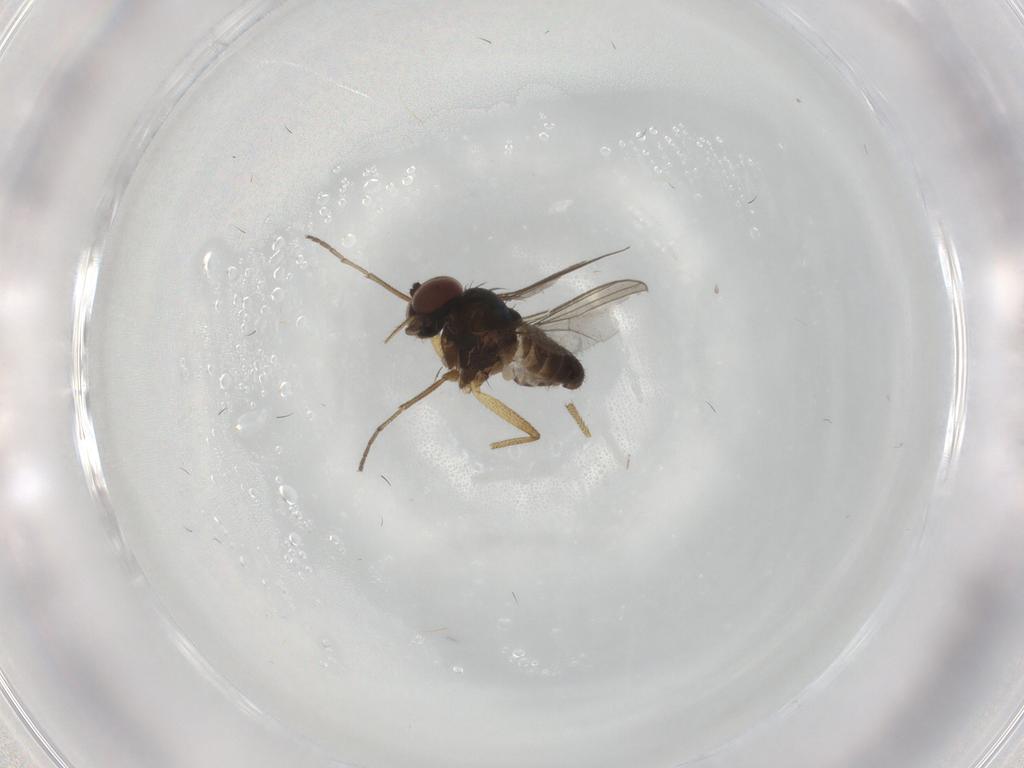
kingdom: Animalia
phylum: Arthropoda
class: Insecta
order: Diptera
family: Dolichopodidae
